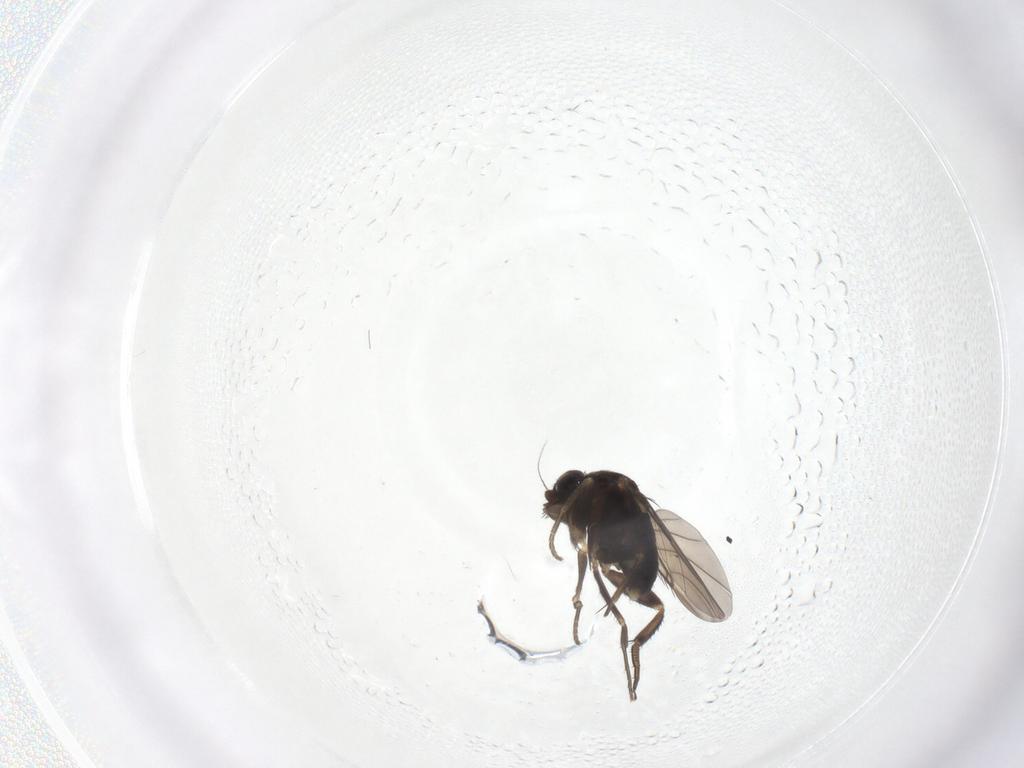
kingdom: Animalia
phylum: Arthropoda
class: Insecta
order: Diptera
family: Phoridae
